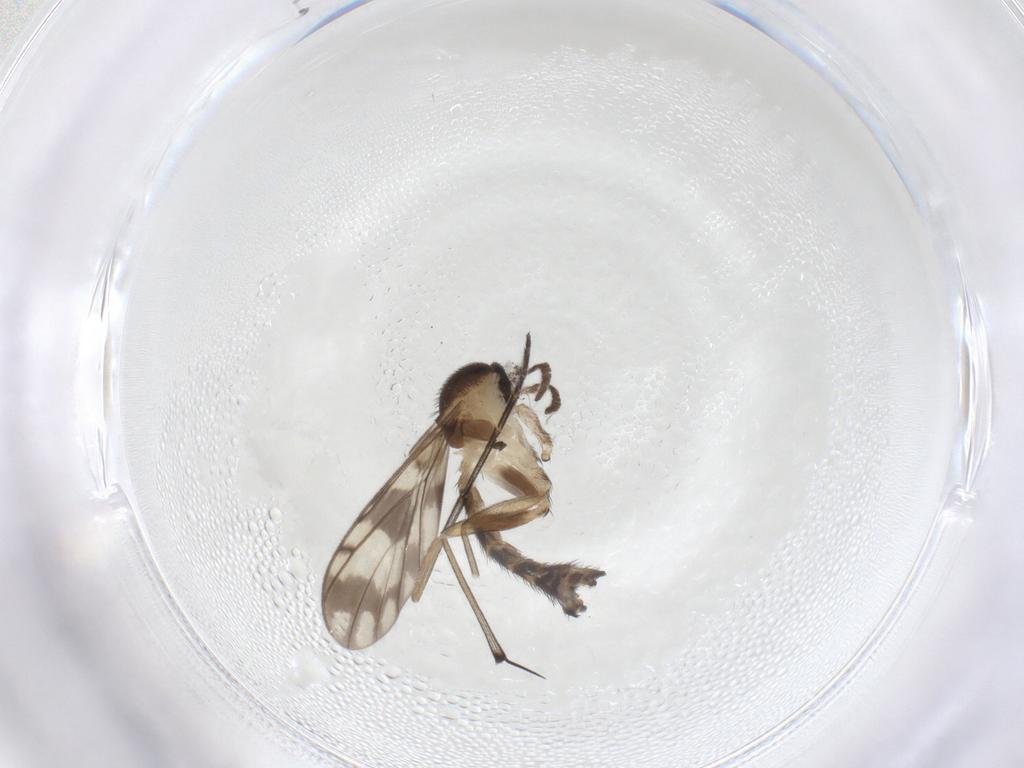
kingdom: Animalia
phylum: Arthropoda
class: Insecta
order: Diptera
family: Keroplatidae
